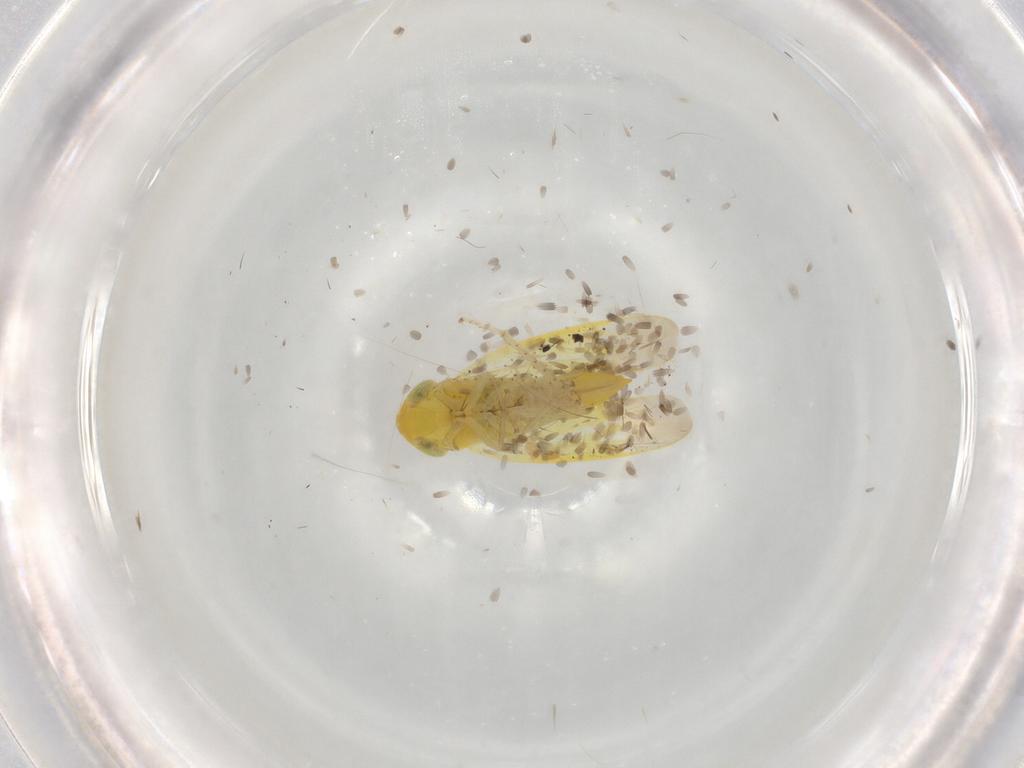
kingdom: Animalia
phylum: Arthropoda
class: Insecta
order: Hemiptera
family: Cicadellidae
